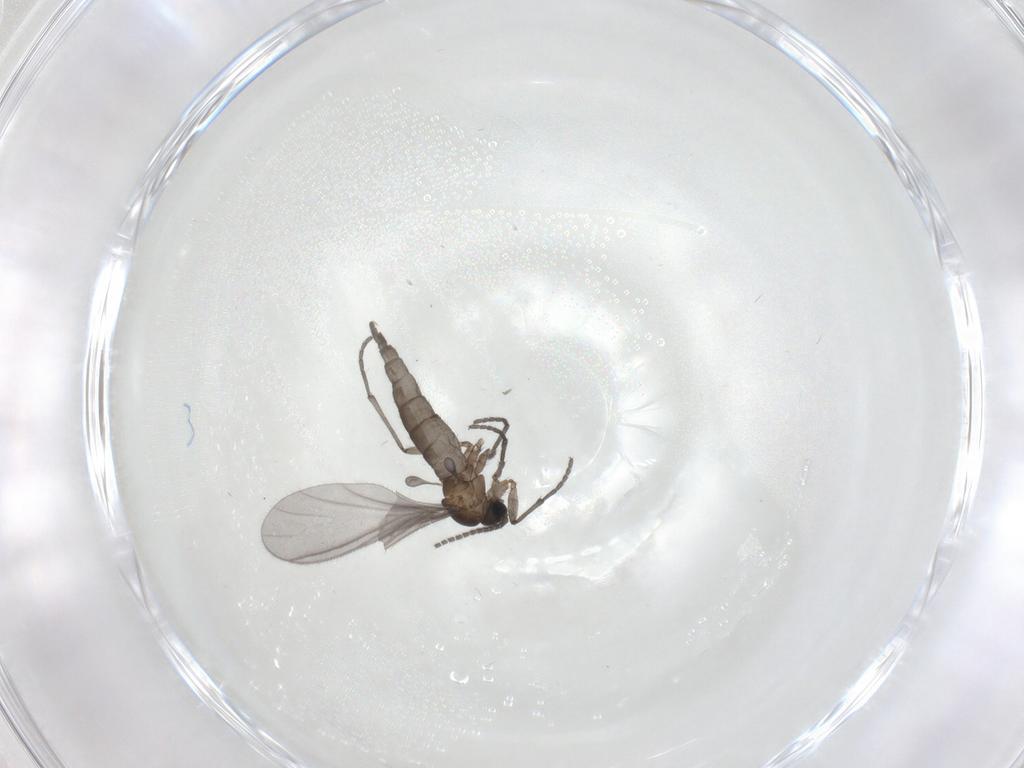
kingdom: Animalia
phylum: Arthropoda
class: Insecta
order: Diptera
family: Sciaridae
